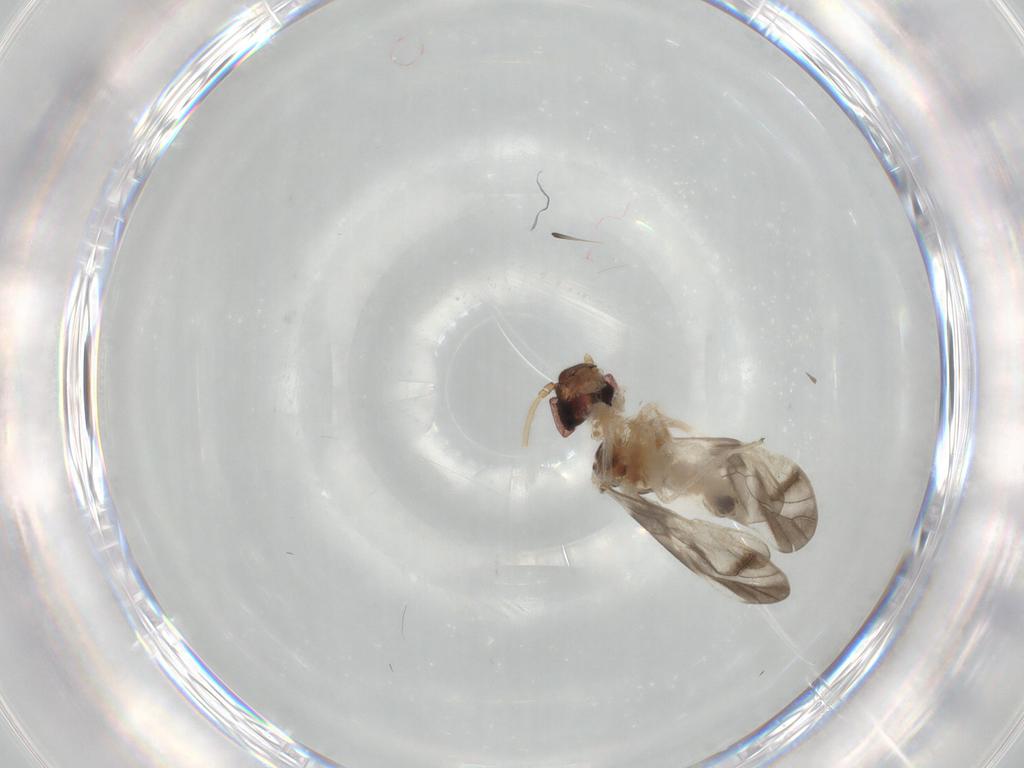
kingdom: Animalia
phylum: Arthropoda
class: Insecta
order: Psocodea
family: Caeciliusidae
